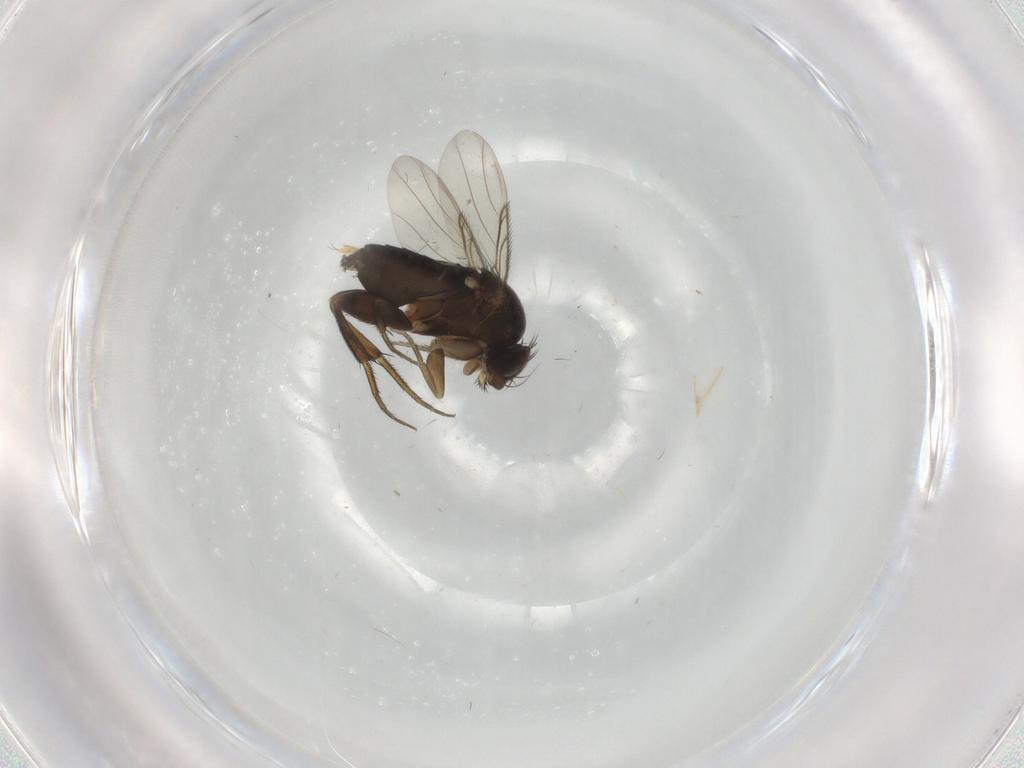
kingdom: Animalia
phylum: Arthropoda
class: Insecta
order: Diptera
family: Phoridae
